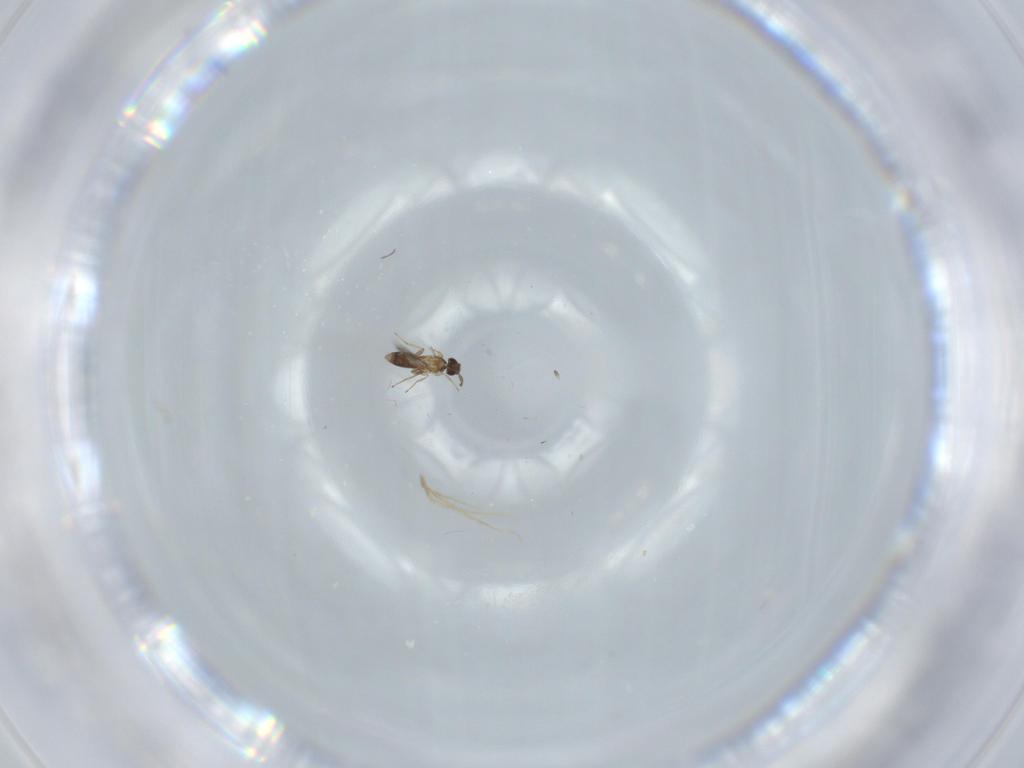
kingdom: Animalia
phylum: Arthropoda
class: Insecta
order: Hymenoptera
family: Mymaridae
